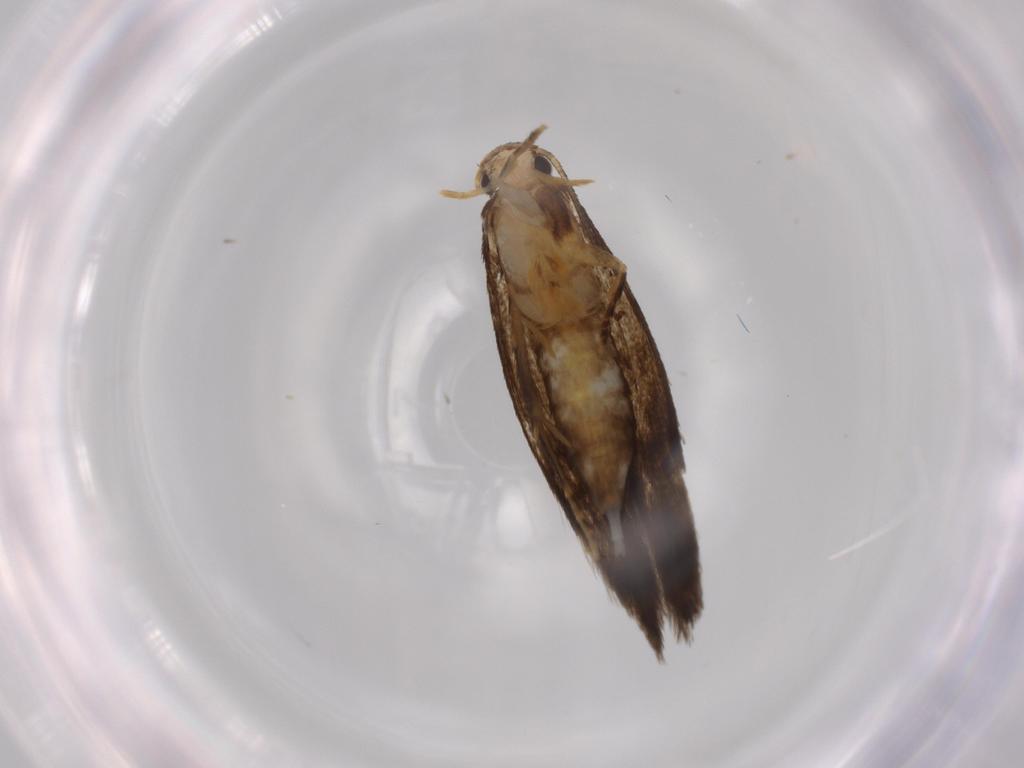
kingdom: Animalia
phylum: Arthropoda
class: Insecta
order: Lepidoptera
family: Tineidae
